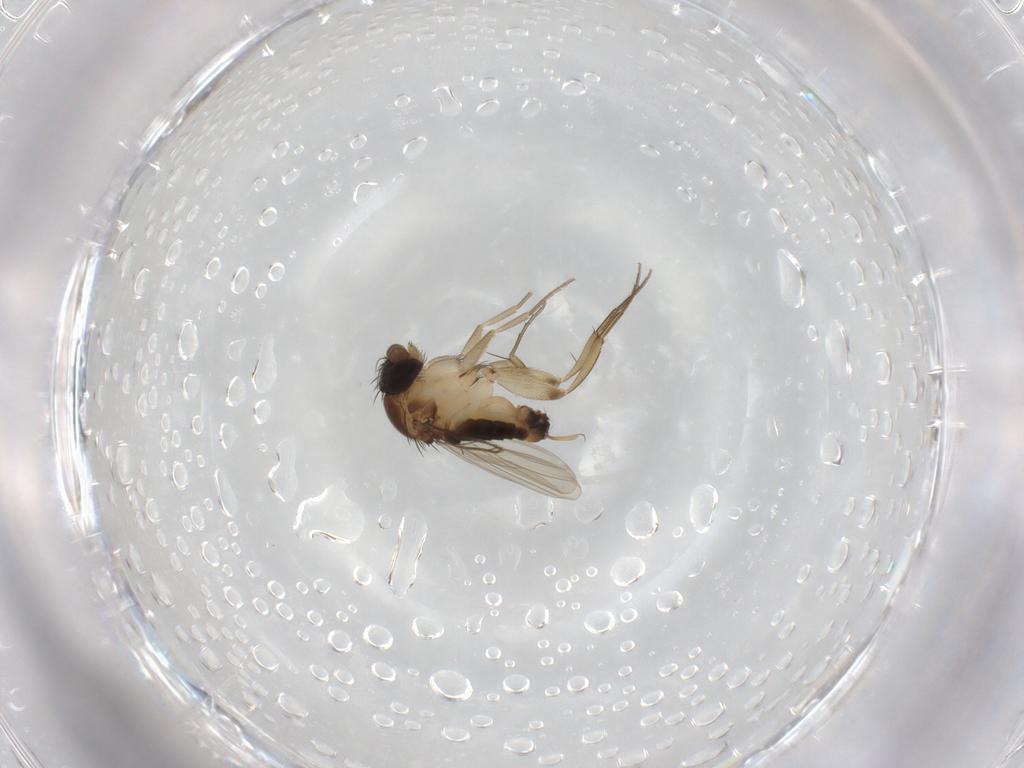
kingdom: Animalia
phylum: Arthropoda
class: Insecta
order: Diptera
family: Phoridae
